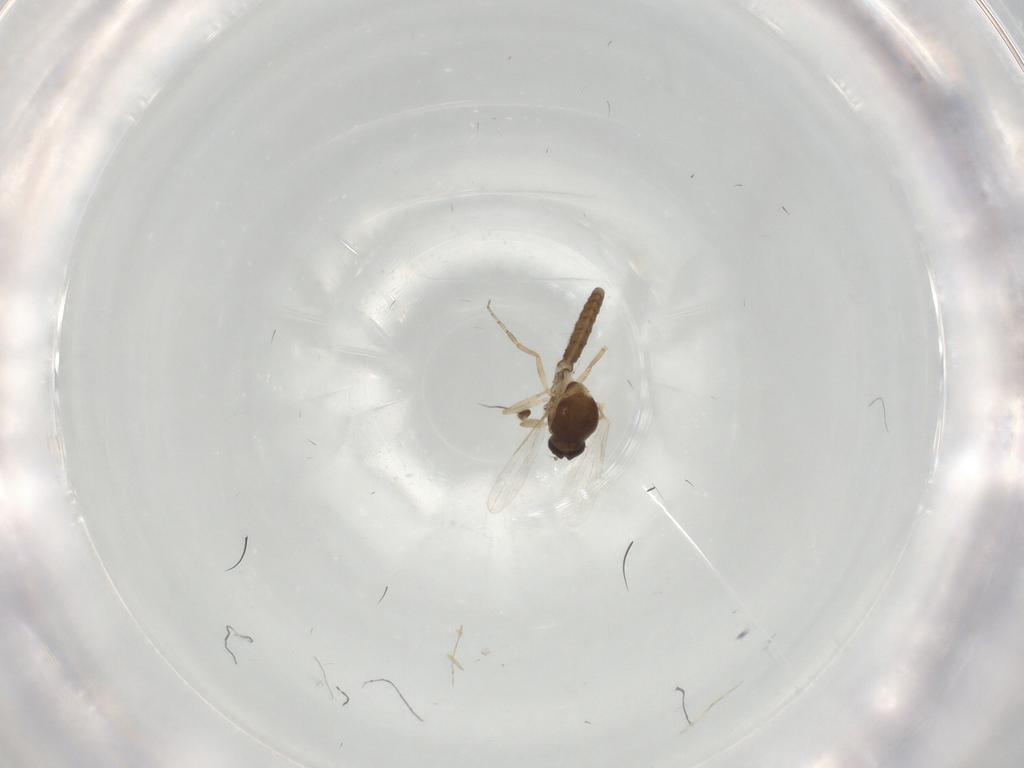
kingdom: Animalia
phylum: Arthropoda
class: Insecta
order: Diptera
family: Ceratopogonidae
